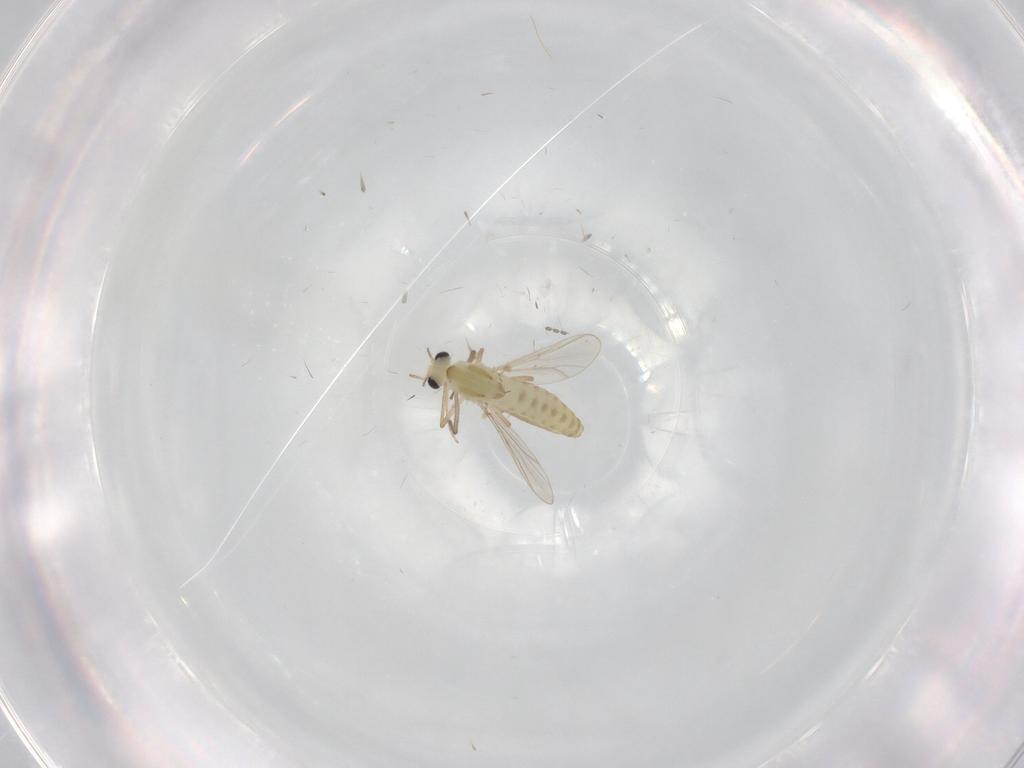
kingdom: Animalia
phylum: Arthropoda
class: Insecta
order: Diptera
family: Chironomidae
